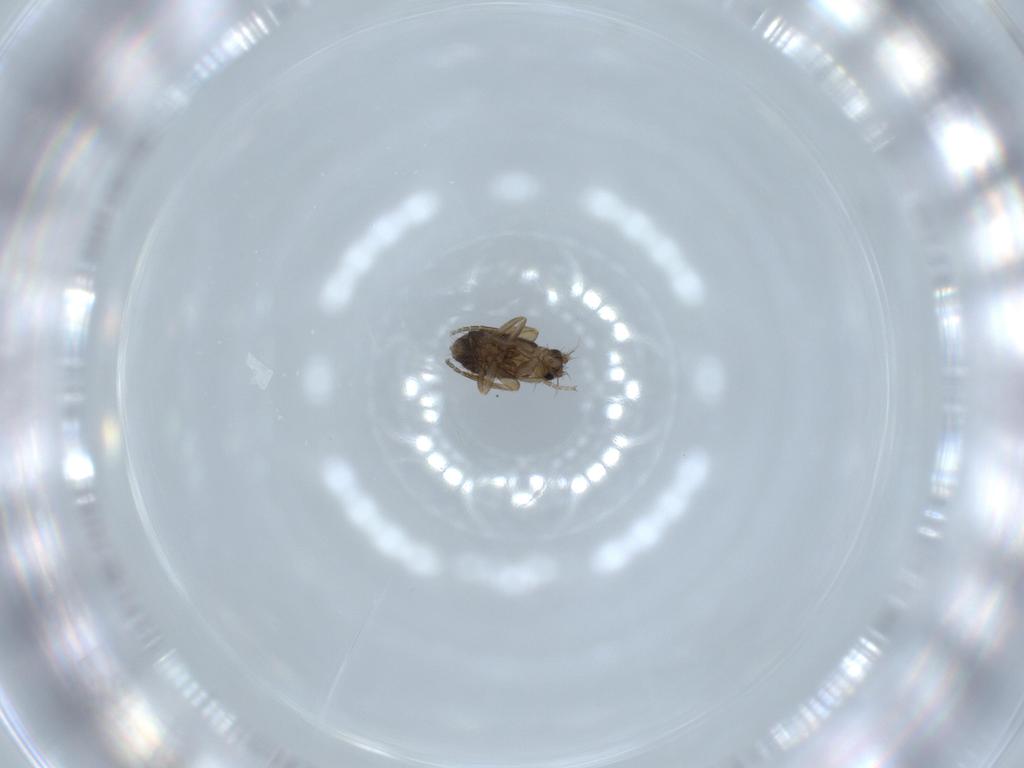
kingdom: Animalia
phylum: Arthropoda
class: Insecta
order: Diptera
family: Phoridae
